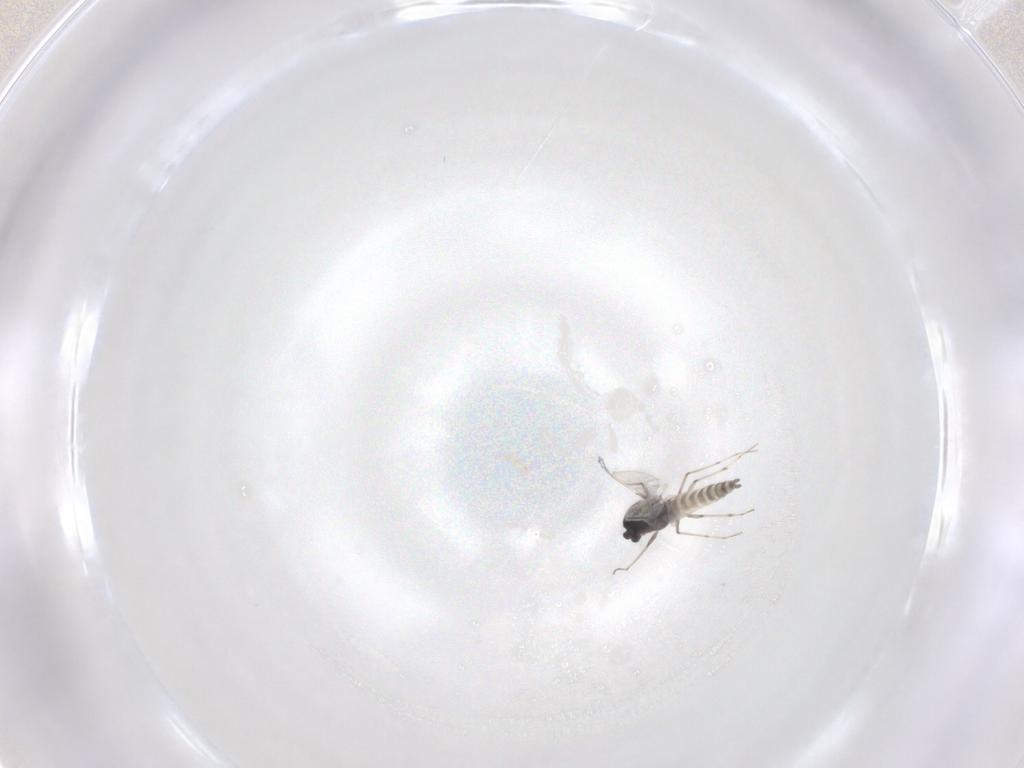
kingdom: Animalia
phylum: Arthropoda
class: Insecta
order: Diptera
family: Chironomidae
